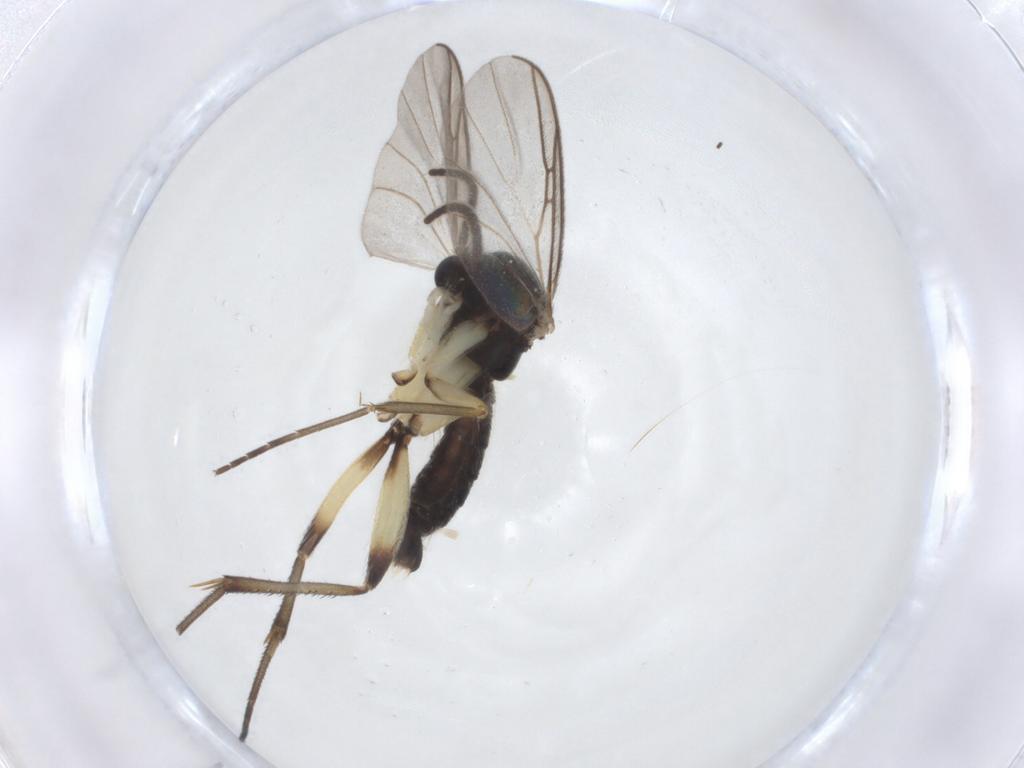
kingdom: Animalia
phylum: Arthropoda
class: Insecta
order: Diptera
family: Mycetophilidae
